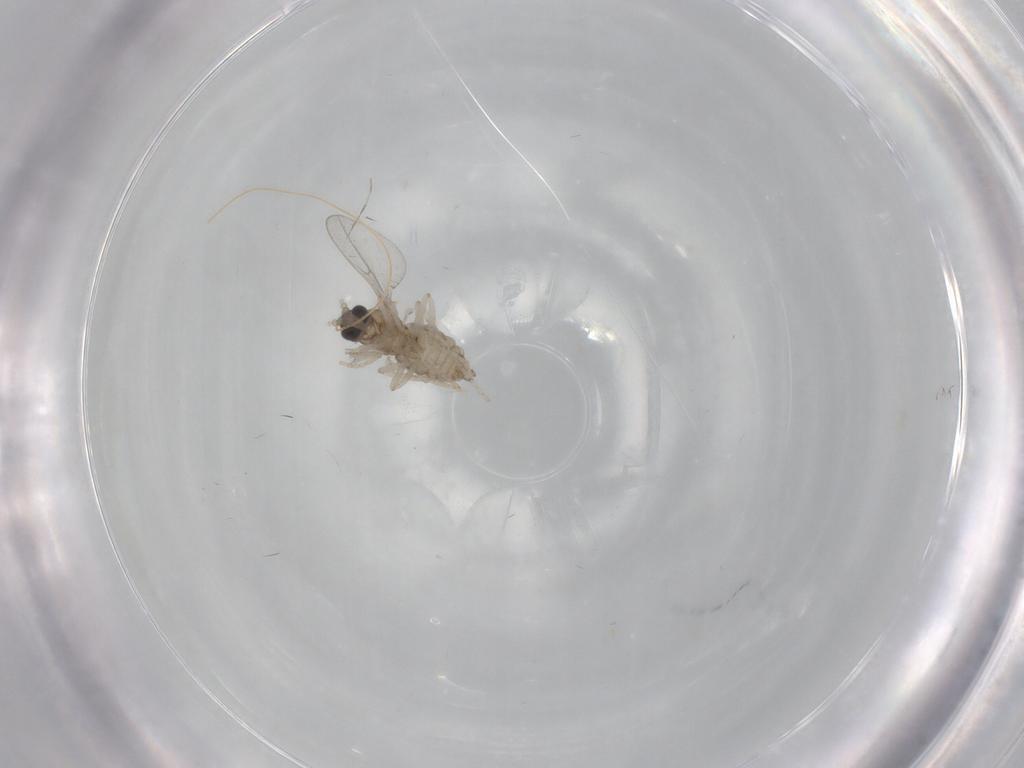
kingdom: Animalia
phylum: Arthropoda
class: Insecta
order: Diptera
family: Cecidomyiidae
